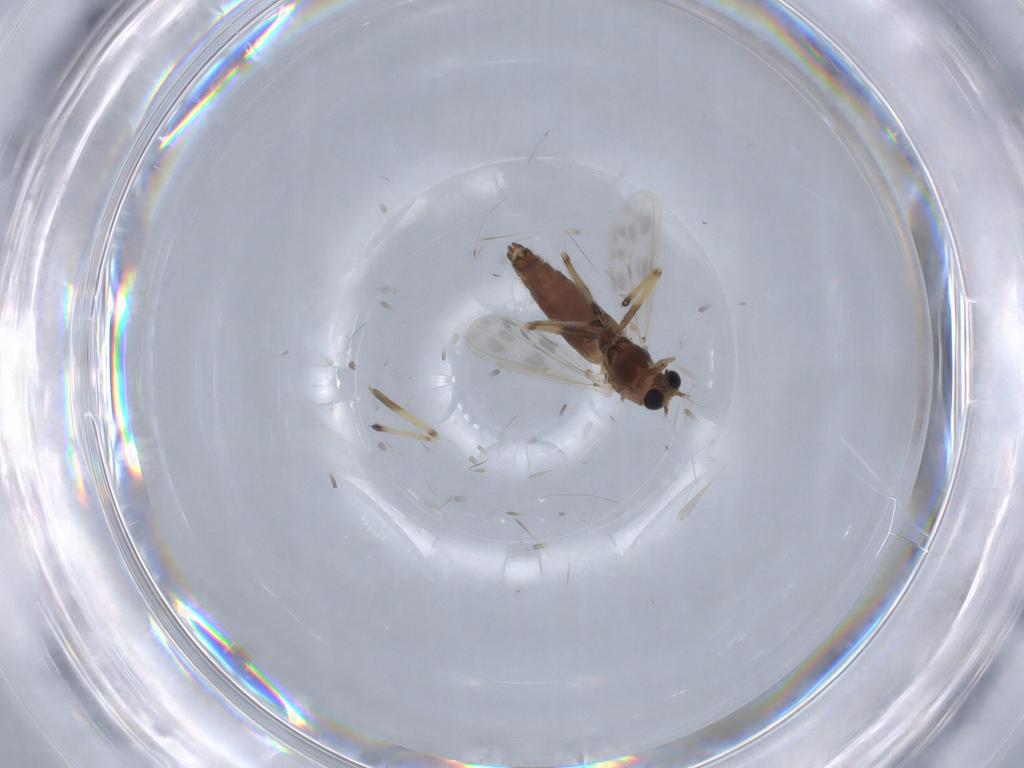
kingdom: Animalia
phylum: Arthropoda
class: Insecta
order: Diptera
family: Chironomidae
